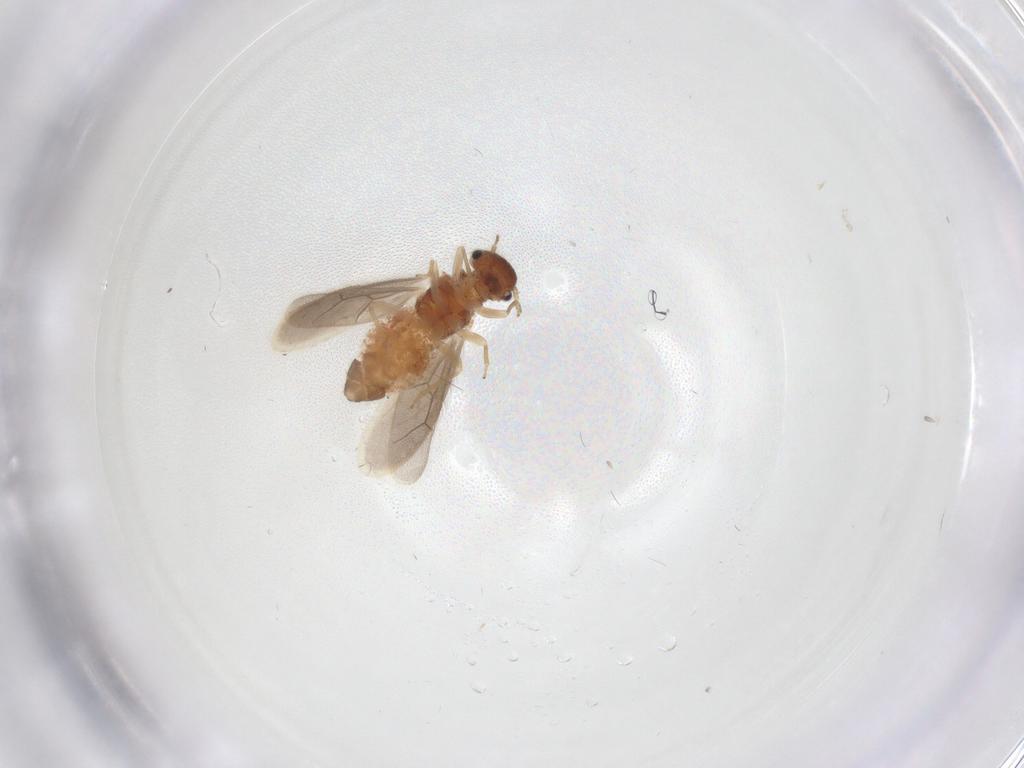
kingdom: Animalia
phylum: Arthropoda
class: Insecta
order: Psocodea
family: Archipsocidae
